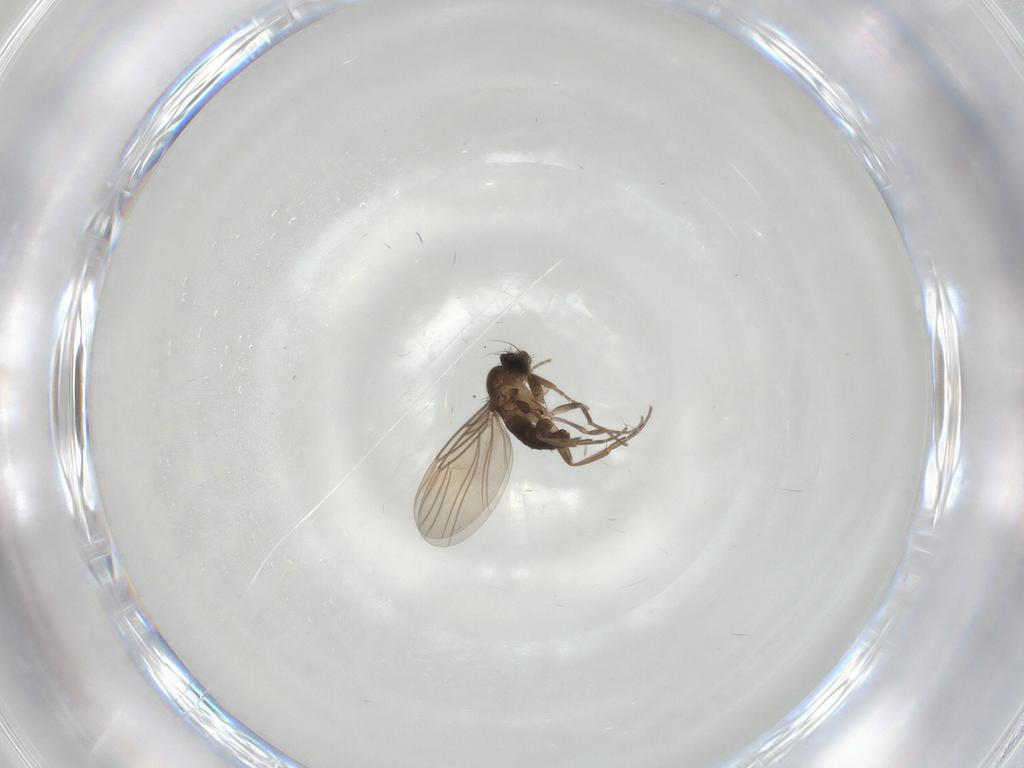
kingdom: Animalia
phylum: Arthropoda
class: Insecta
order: Diptera
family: Phoridae
